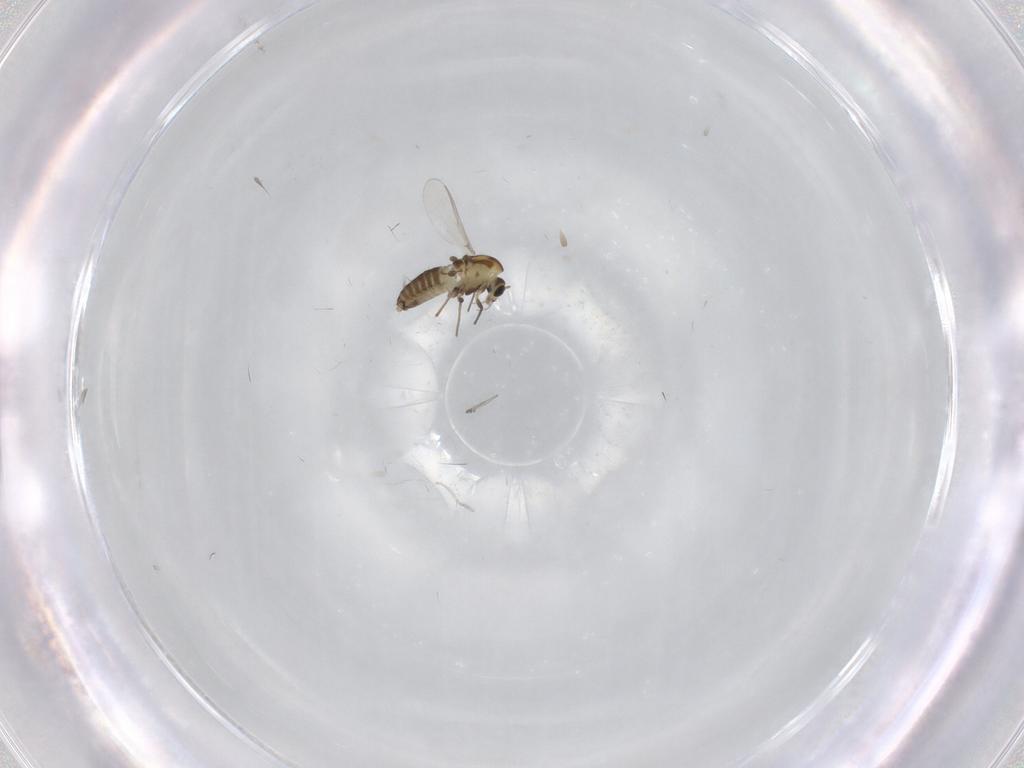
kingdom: Animalia
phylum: Arthropoda
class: Insecta
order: Diptera
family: Chironomidae
